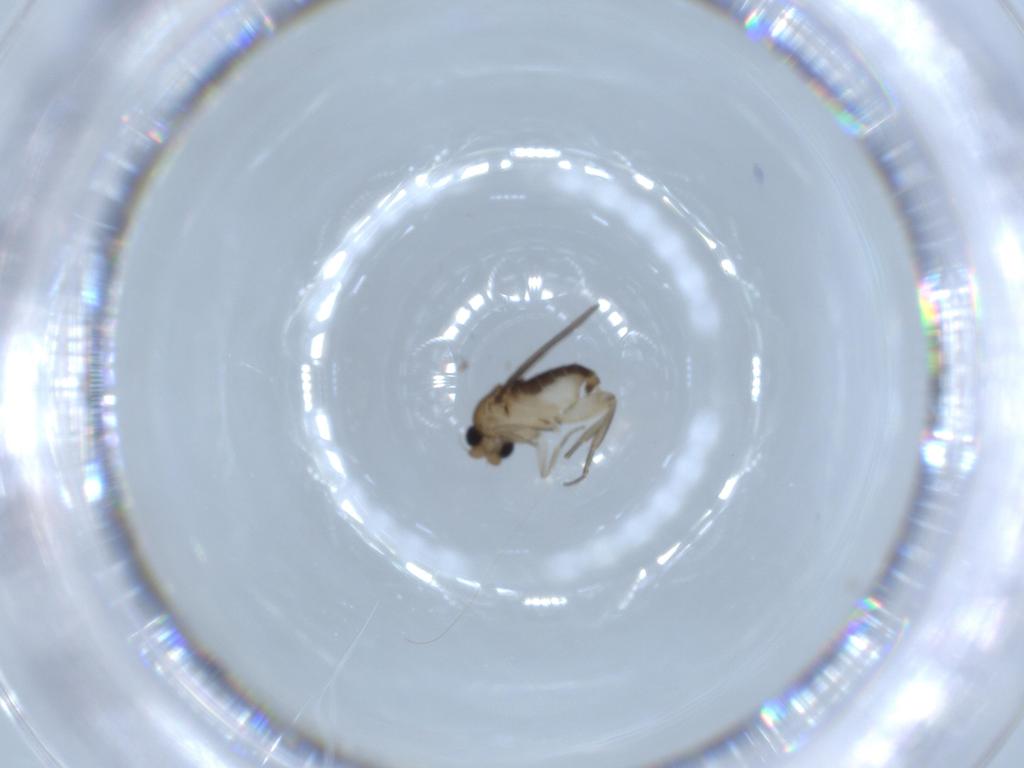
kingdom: Animalia
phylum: Arthropoda
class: Insecta
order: Diptera
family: Phoridae
